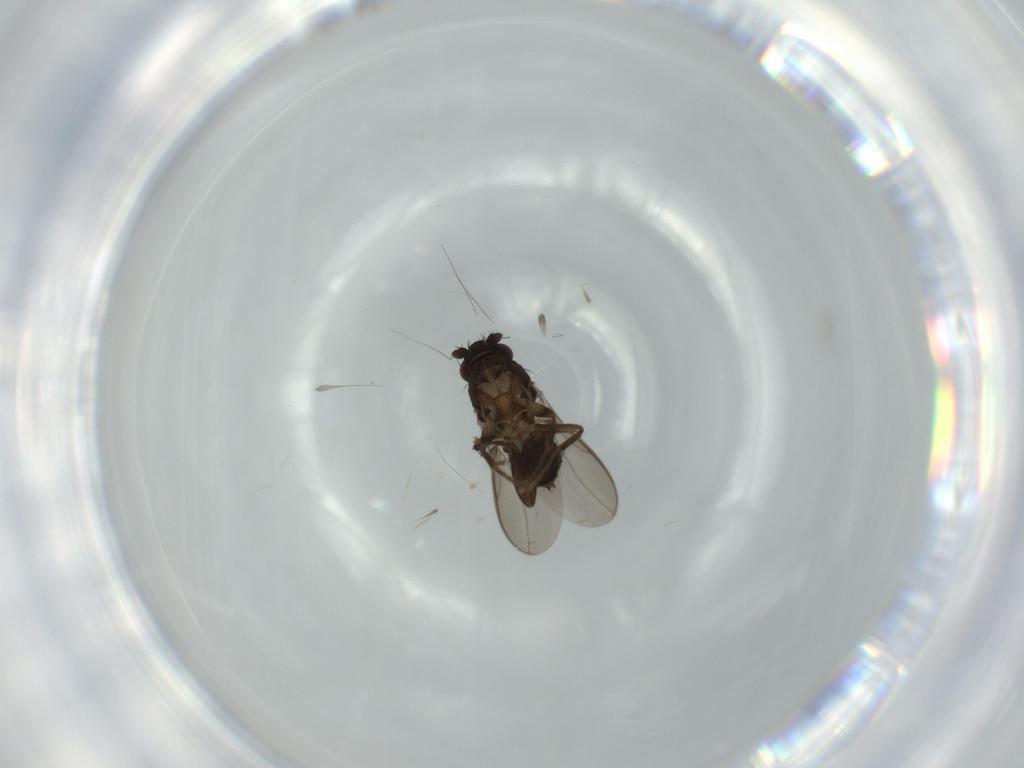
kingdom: Animalia
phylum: Arthropoda
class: Insecta
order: Diptera
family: Sphaeroceridae
